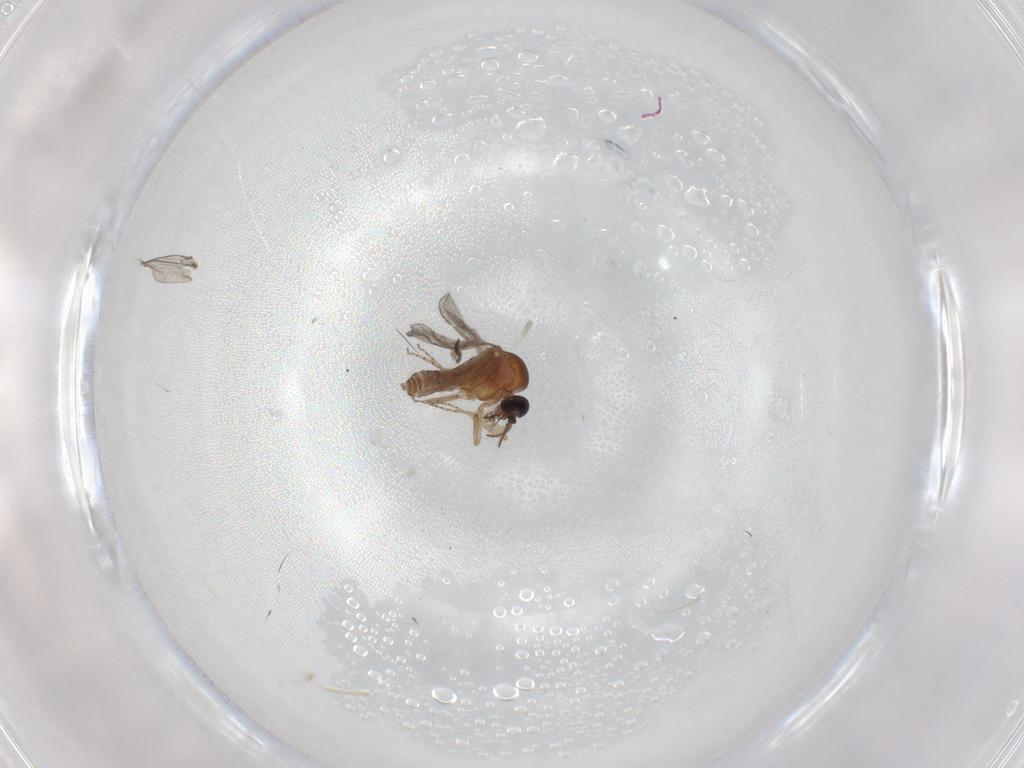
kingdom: Animalia
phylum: Arthropoda
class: Insecta
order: Diptera
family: Ceratopogonidae
